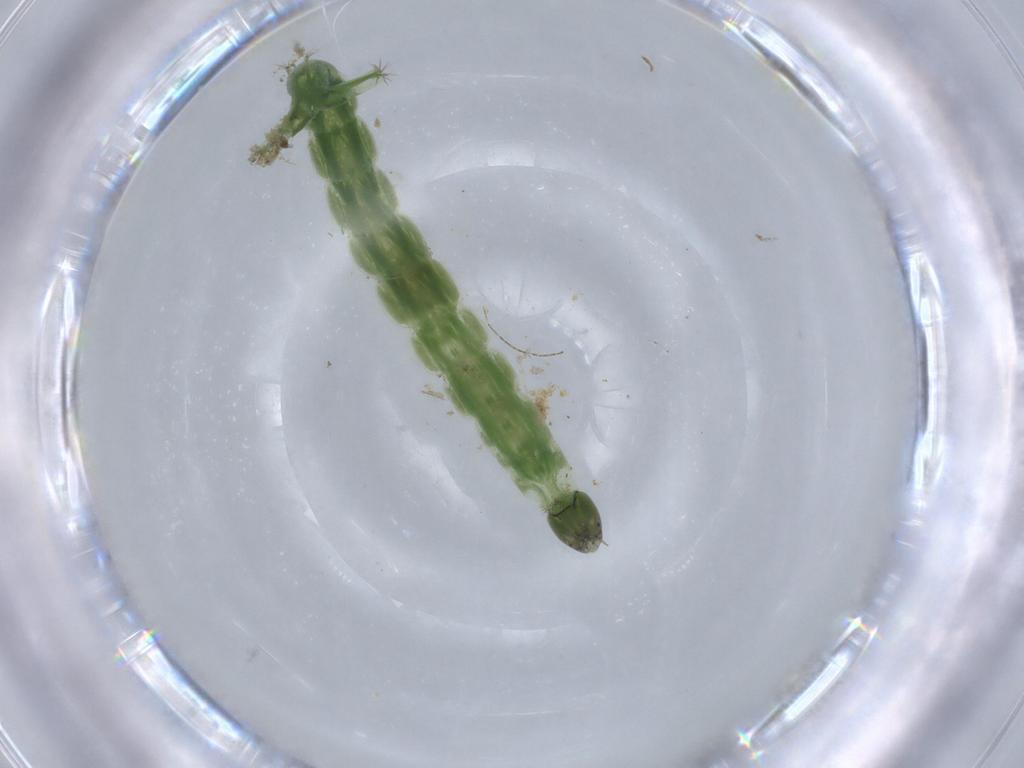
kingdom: Animalia
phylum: Arthropoda
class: Insecta
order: Diptera
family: Chironomidae
